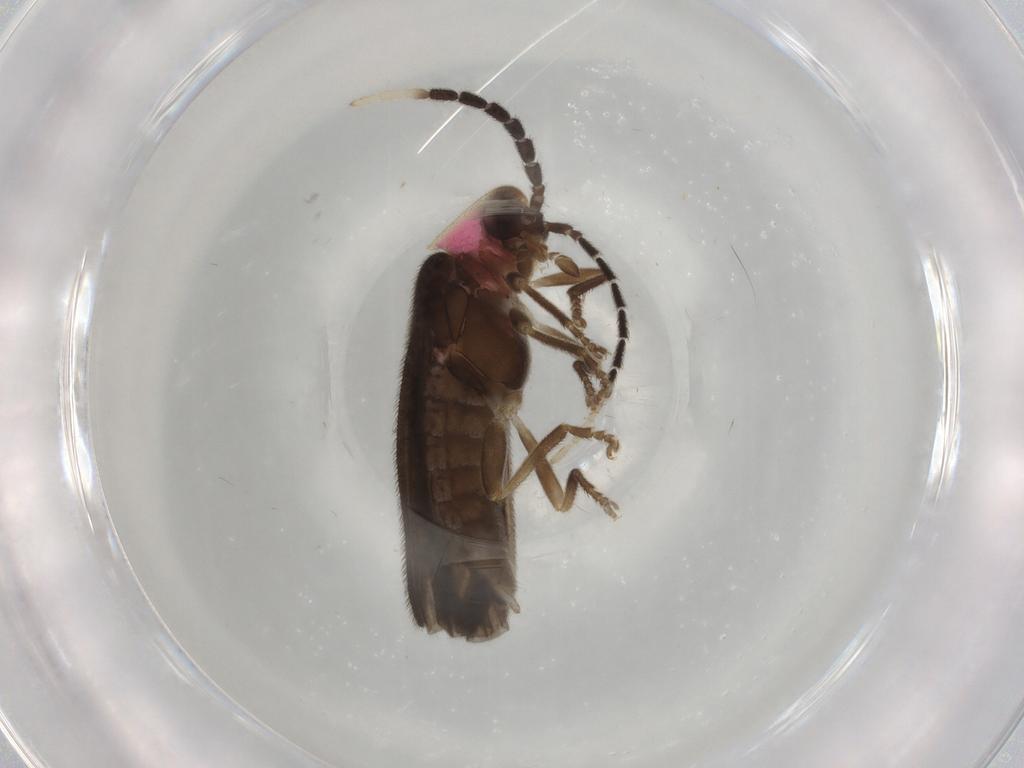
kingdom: Animalia
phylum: Arthropoda
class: Insecta
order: Coleoptera
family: Lampyridae
